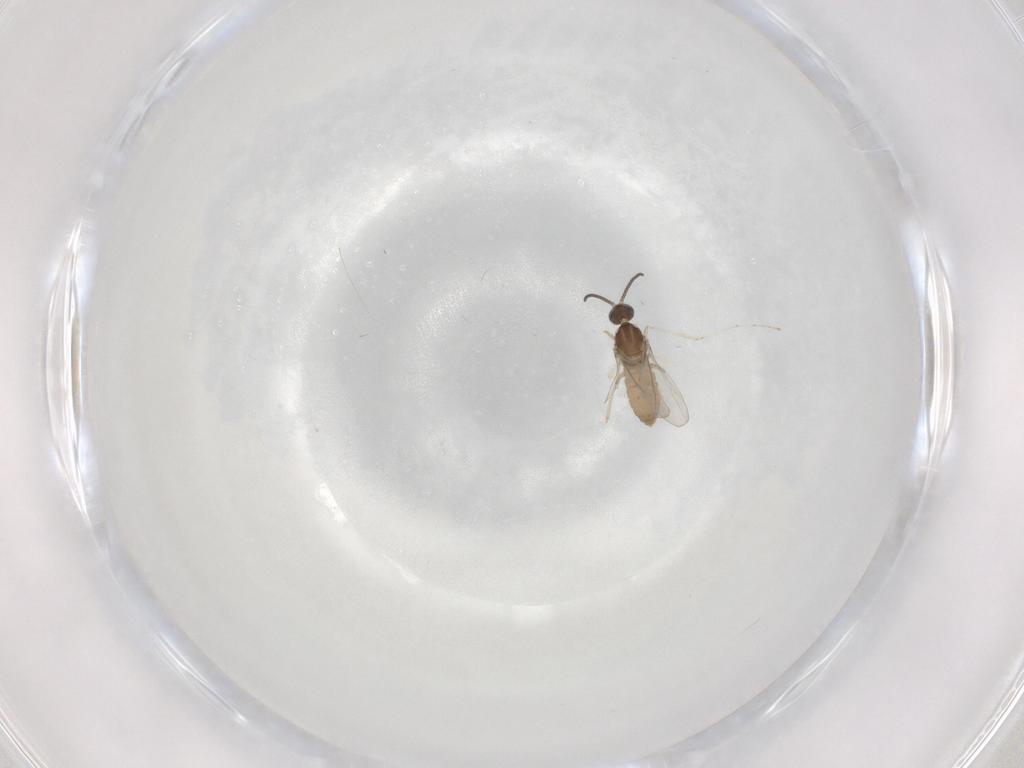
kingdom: Animalia
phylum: Arthropoda
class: Insecta
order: Diptera
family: Cecidomyiidae
